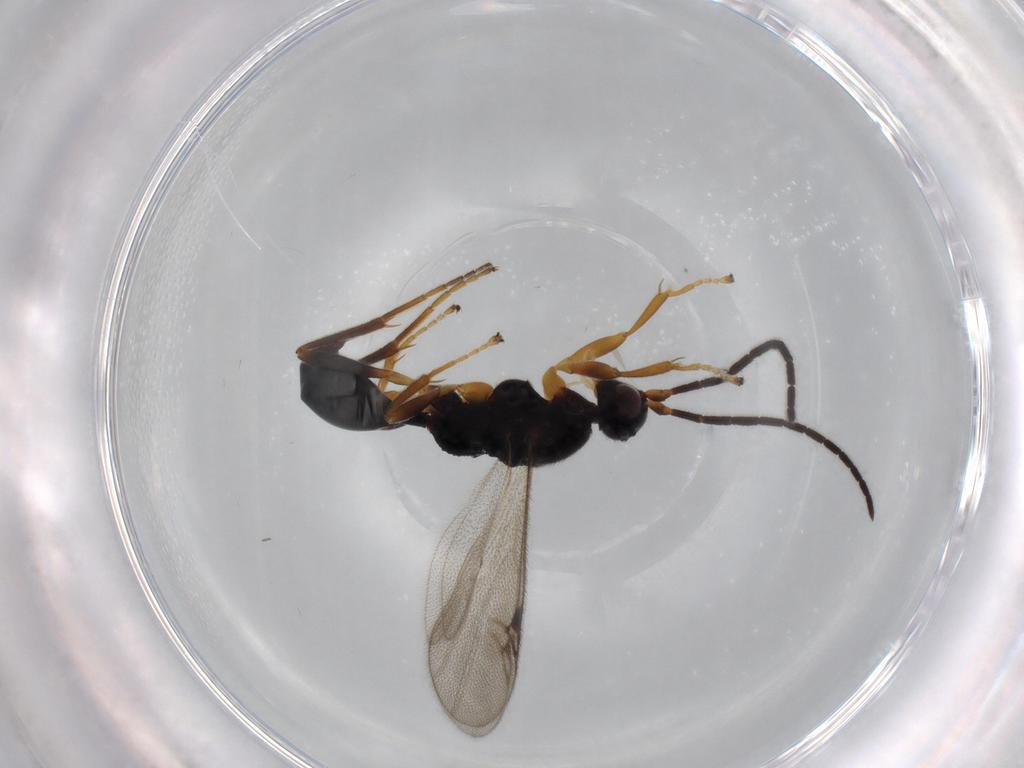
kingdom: Animalia
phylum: Arthropoda
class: Insecta
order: Hymenoptera
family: Proctotrupidae
